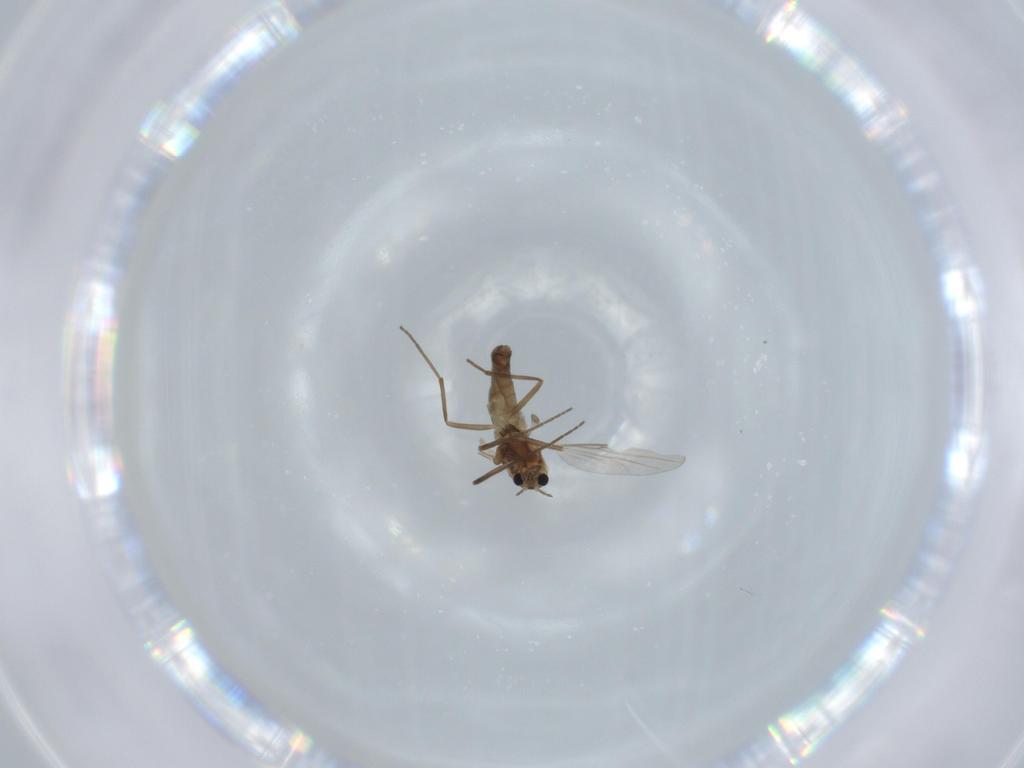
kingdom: Animalia
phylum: Arthropoda
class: Insecta
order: Diptera
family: Chironomidae
